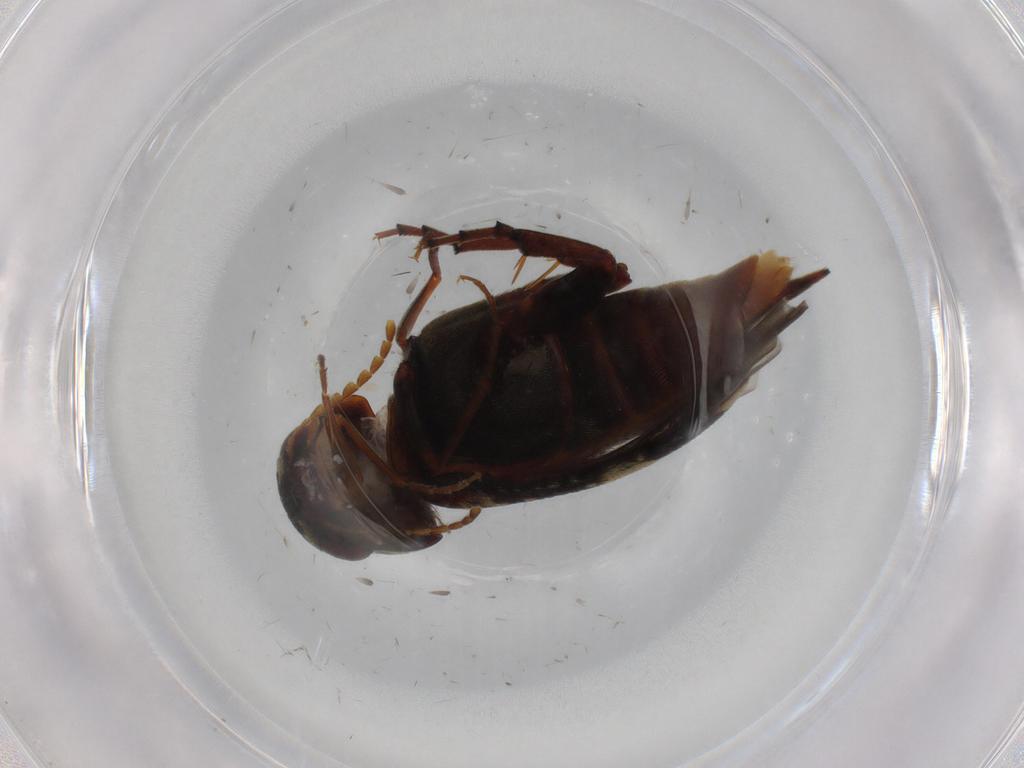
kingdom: Animalia
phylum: Arthropoda
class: Insecta
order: Coleoptera
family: Mordellidae
